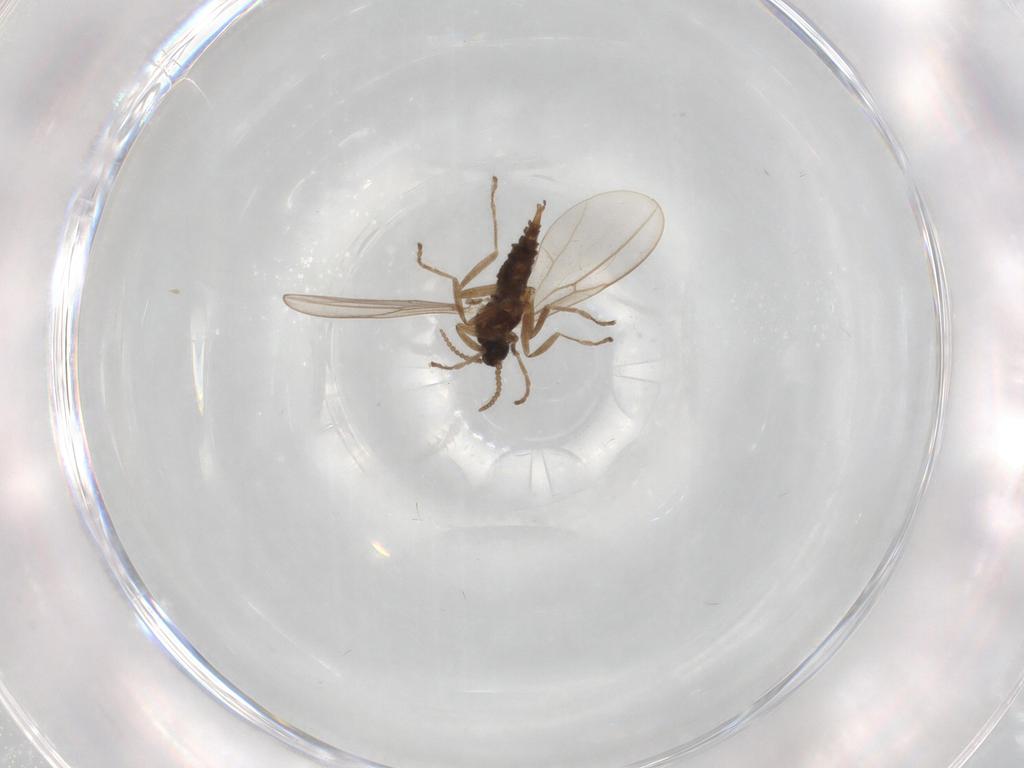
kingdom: Animalia
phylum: Arthropoda
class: Insecta
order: Diptera
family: Cecidomyiidae
